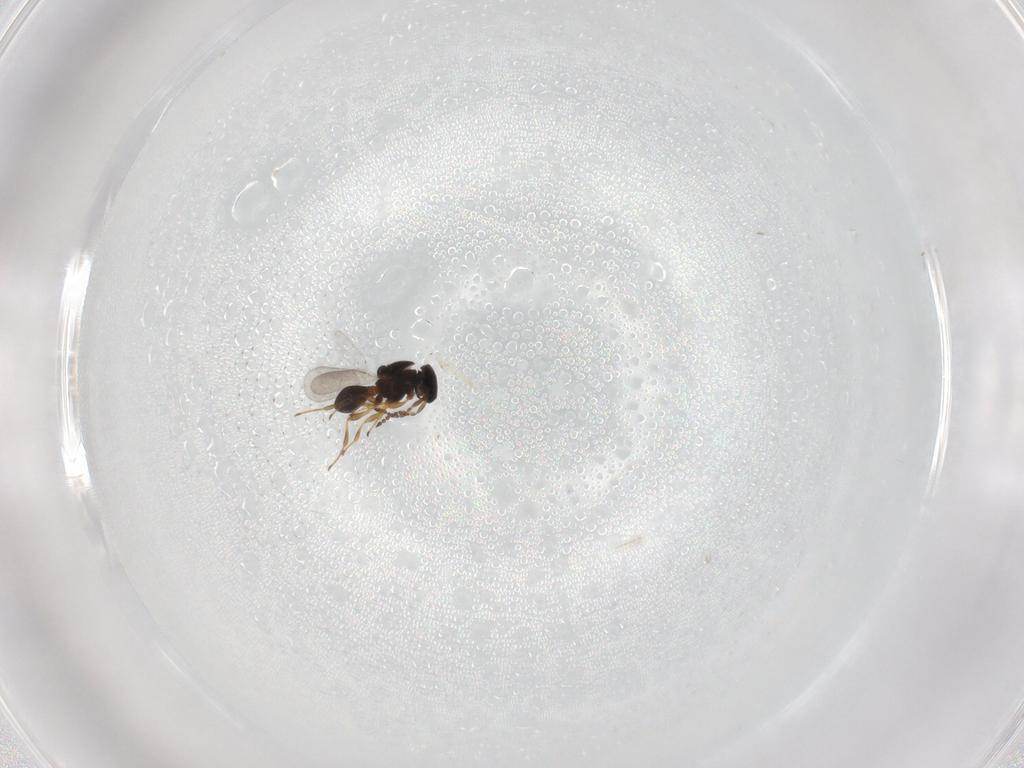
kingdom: Animalia
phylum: Arthropoda
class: Insecta
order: Hymenoptera
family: Platygastridae
